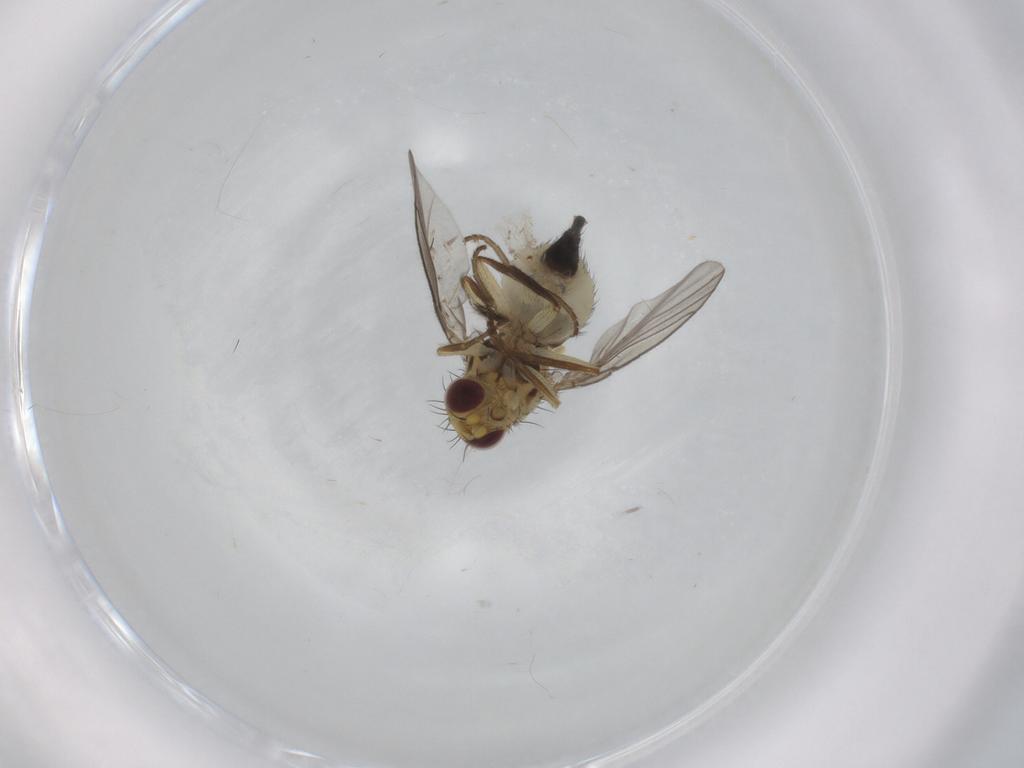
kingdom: Animalia
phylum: Arthropoda
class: Insecta
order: Diptera
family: Agromyzidae
